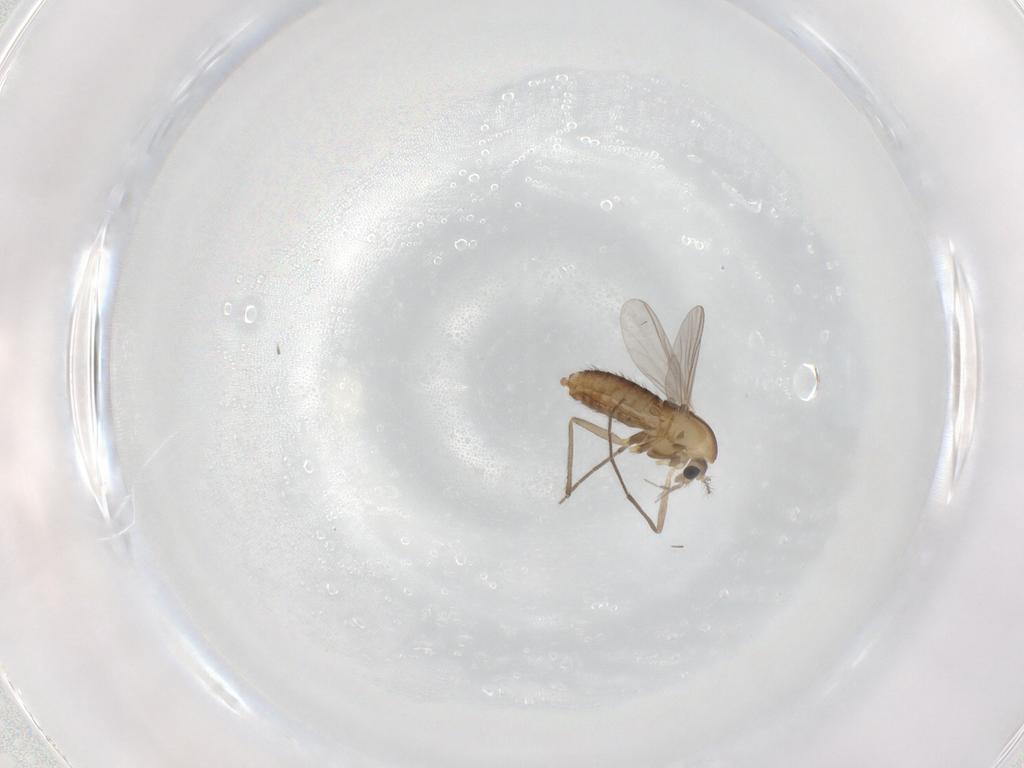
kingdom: Animalia
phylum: Arthropoda
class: Insecta
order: Diptera
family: Chironomidae
